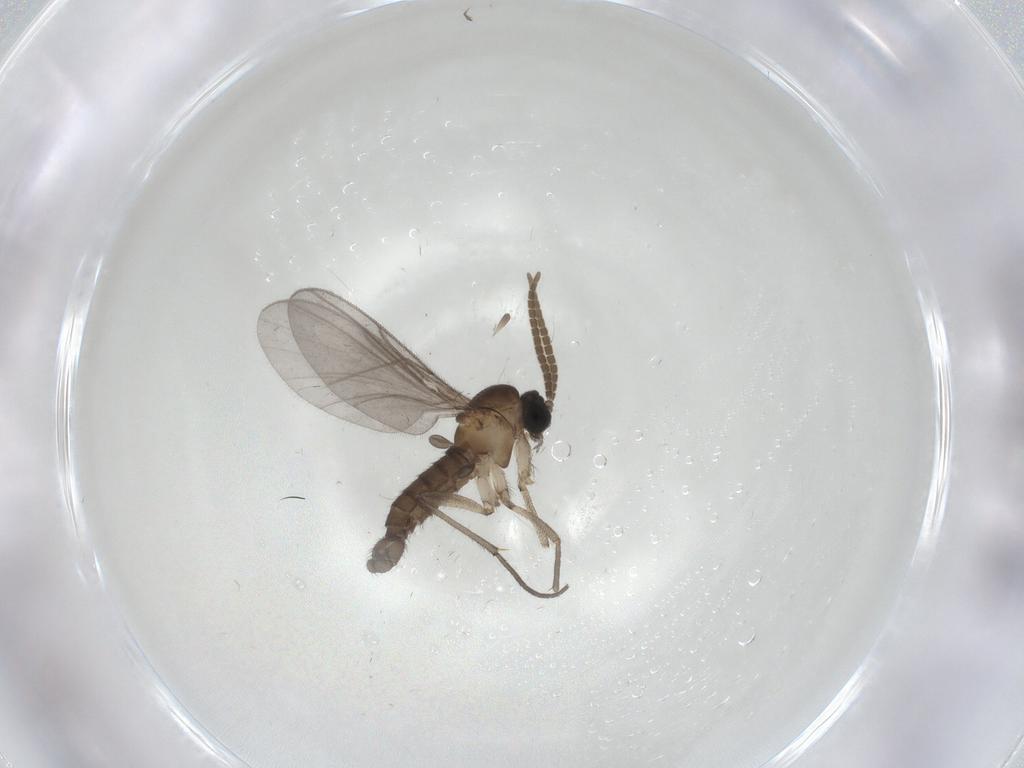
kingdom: Animalia
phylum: Arthropoda
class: Insecta
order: Diptera
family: Cecidomyiidae
